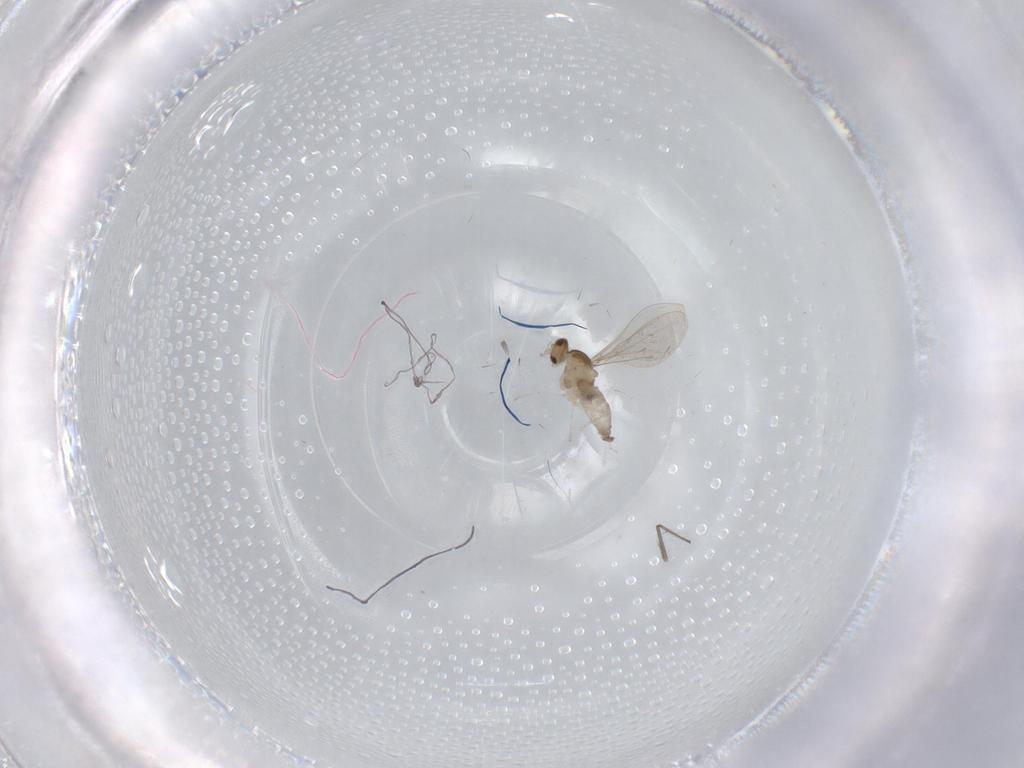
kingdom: Animalia
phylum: Arthropoda
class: Insecta
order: Diptera
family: Cecidomyiidae
